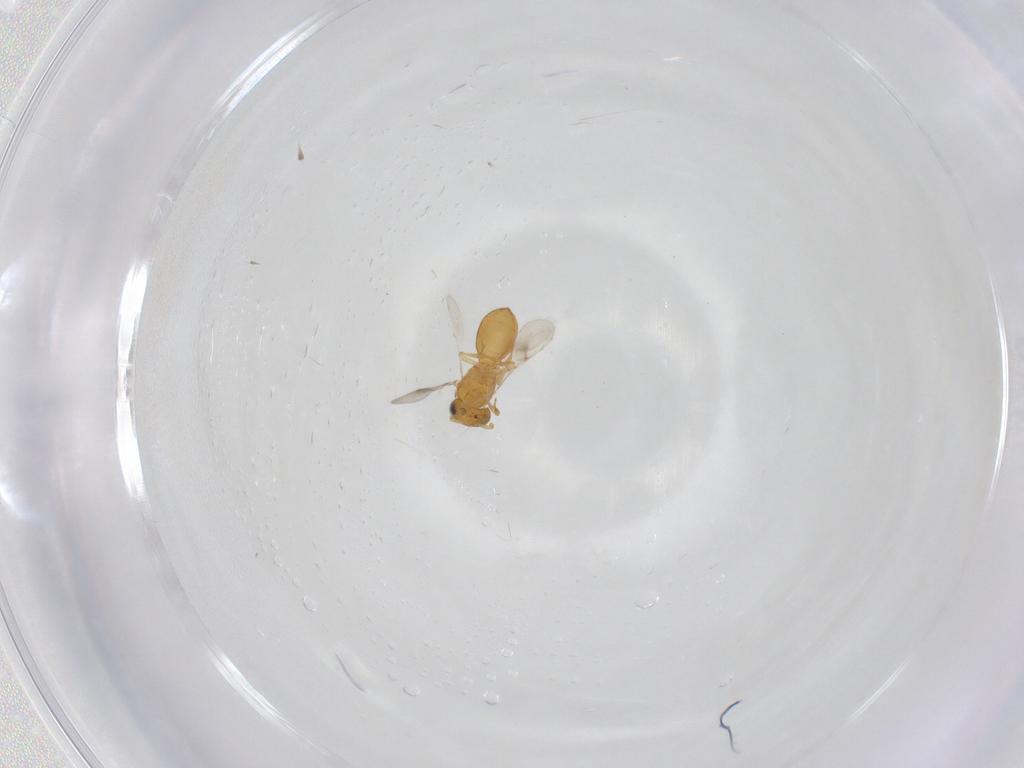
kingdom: Animalia
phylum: Arthropoda
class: Insecta
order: Hymenoptera
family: Scelionidae
